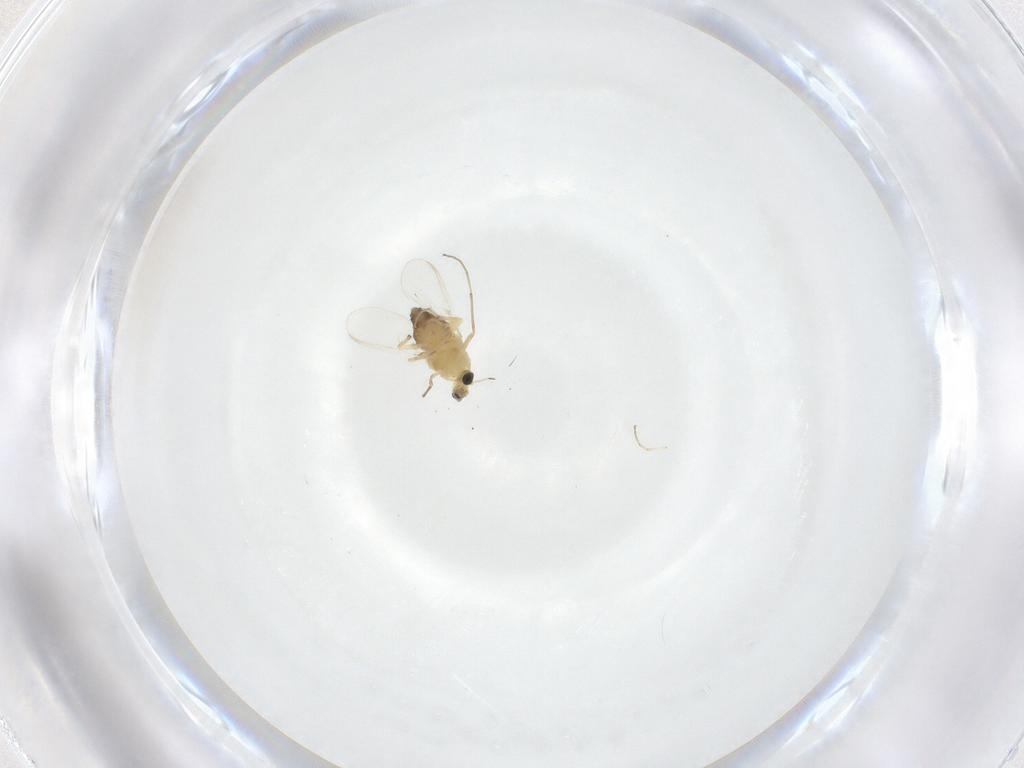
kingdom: Animalia
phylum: Arthropoda
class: Insecta
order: Diptera
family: Chironomidae
